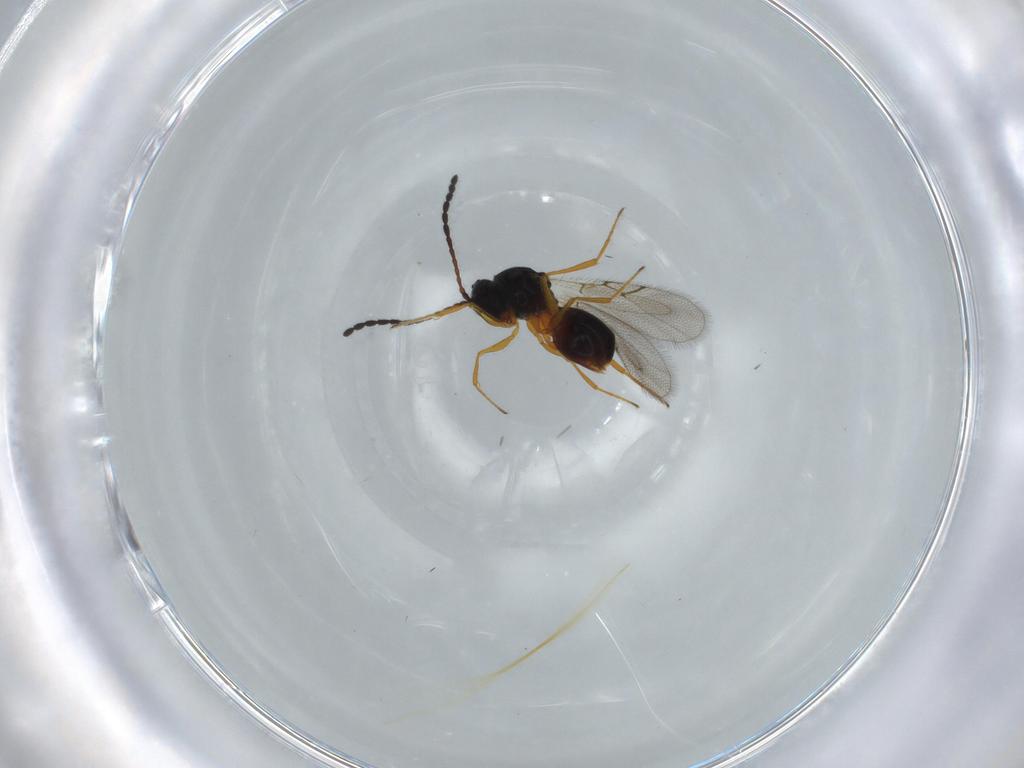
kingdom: Animalia
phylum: Arthropoda
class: Insecta
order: Hymenoptera
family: Figitidae
